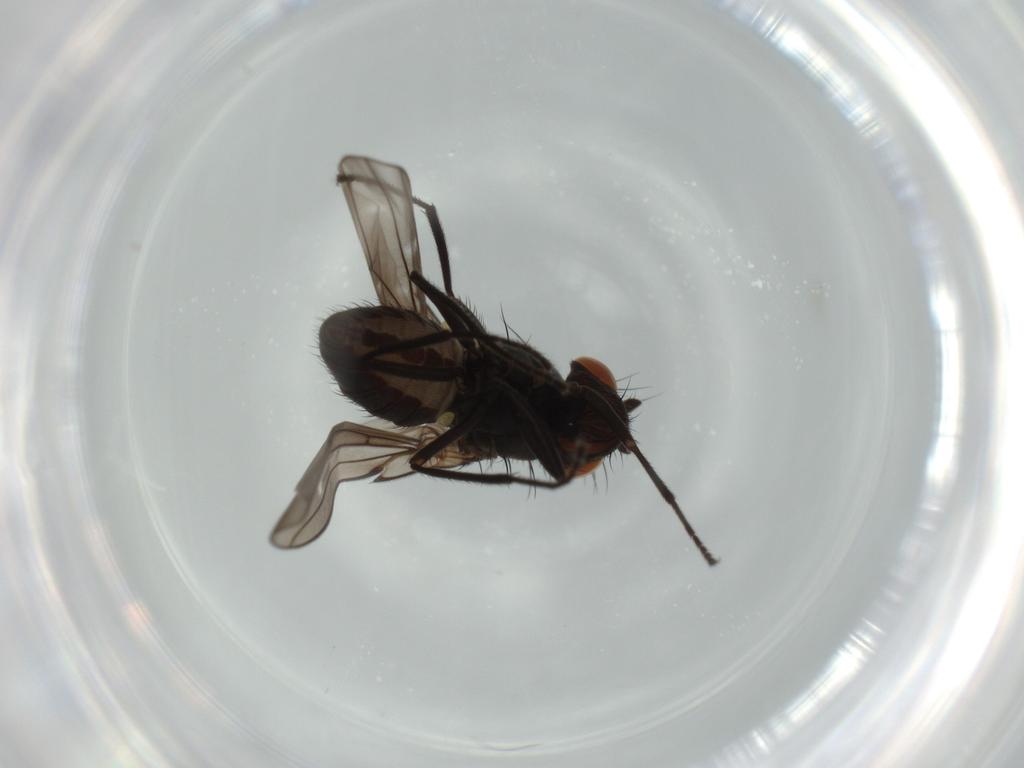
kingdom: Animalia
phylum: Arthropoda
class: Insecta
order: Diptera
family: Ephydridae
